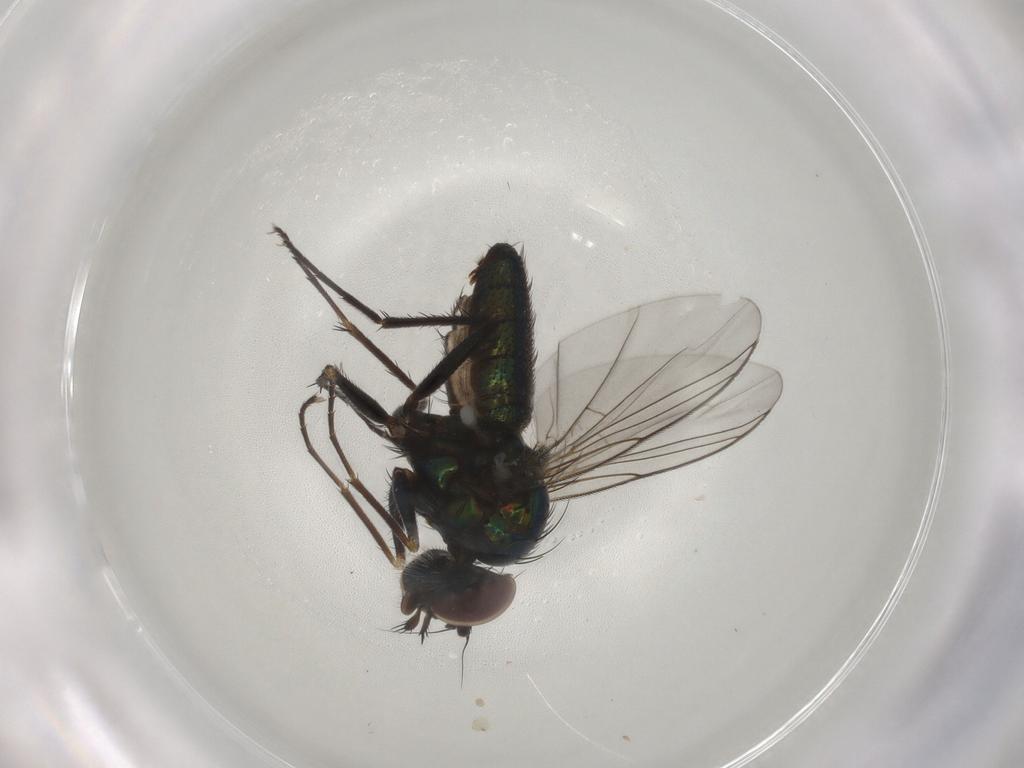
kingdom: Animalia
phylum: Arthropoda
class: Insecta
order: Diptera
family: Dolichopodidae
